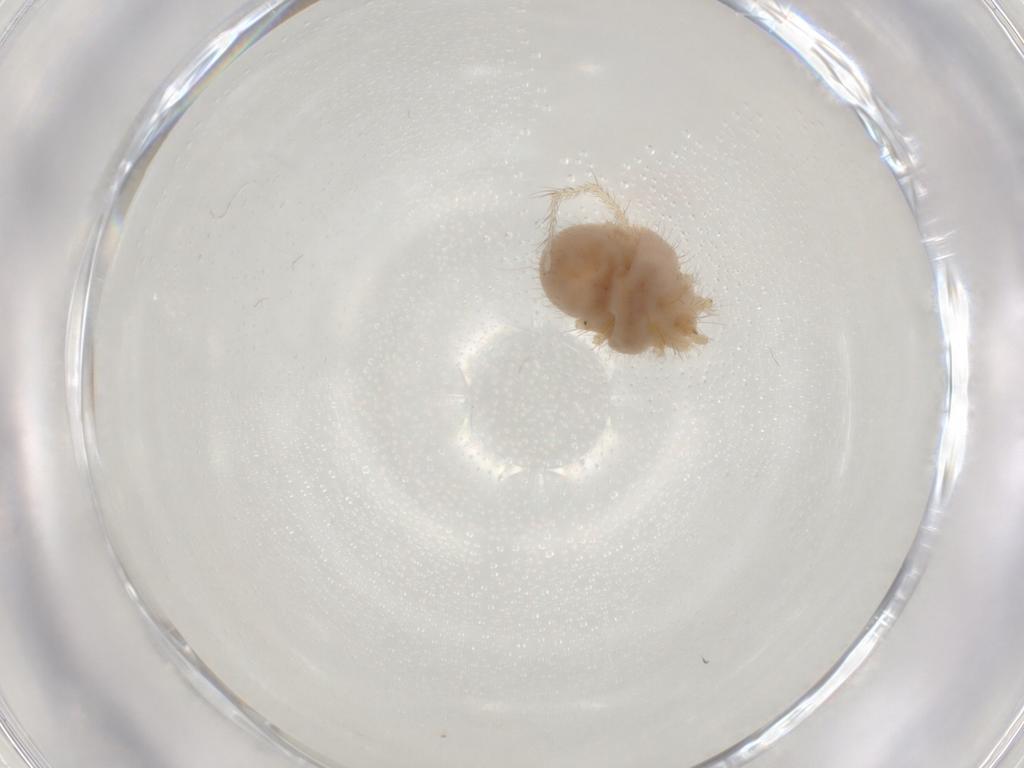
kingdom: Animalia
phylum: Arthropoda
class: Arachnida
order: Trombidiformes
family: Erythraeidae
